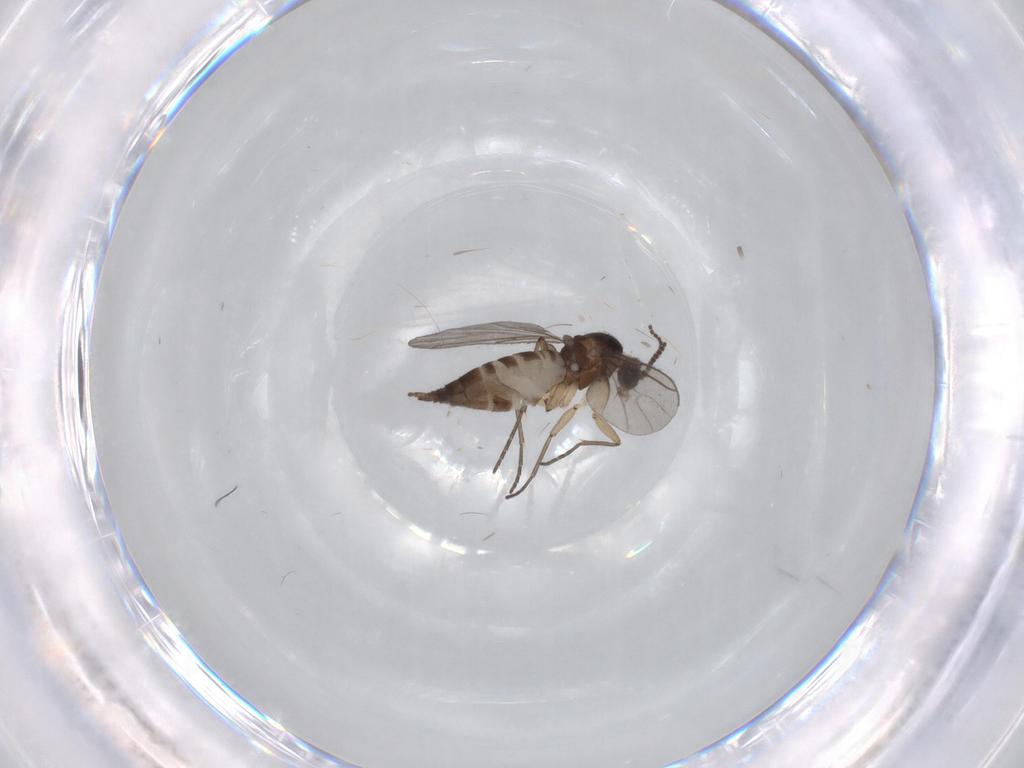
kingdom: Animalia
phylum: Arthropoda
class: Insecta
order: Diptera
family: Sciaridae
